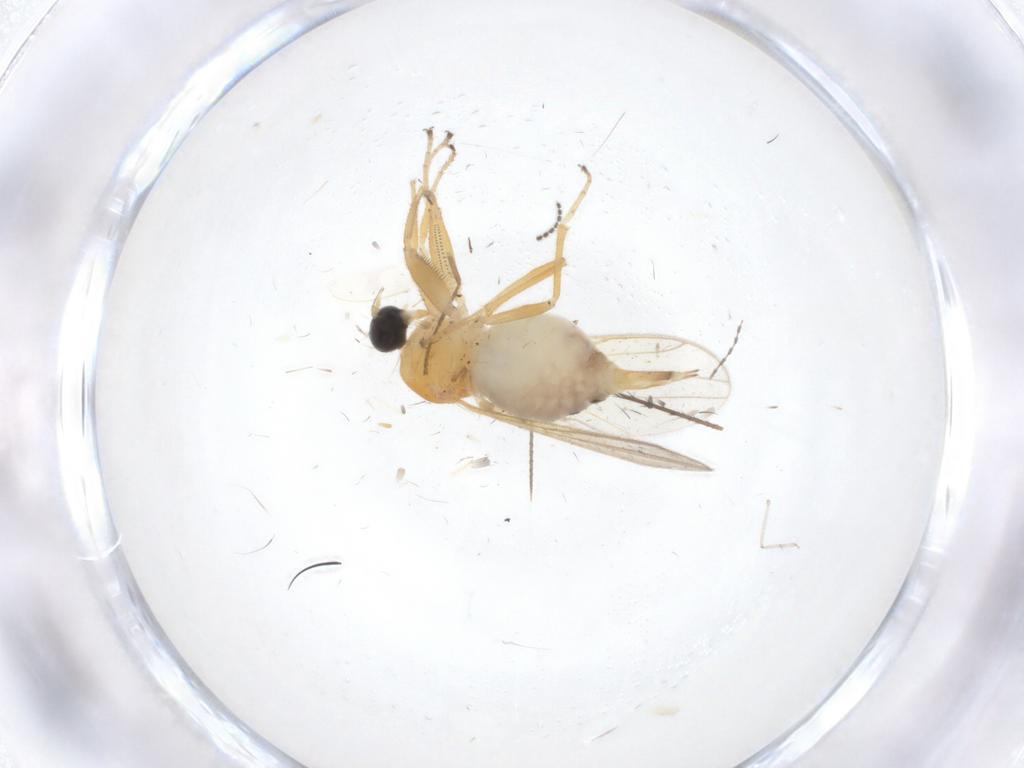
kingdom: Animalia
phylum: Arthropoda
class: Insecta
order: Diptera
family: Hybotidae
